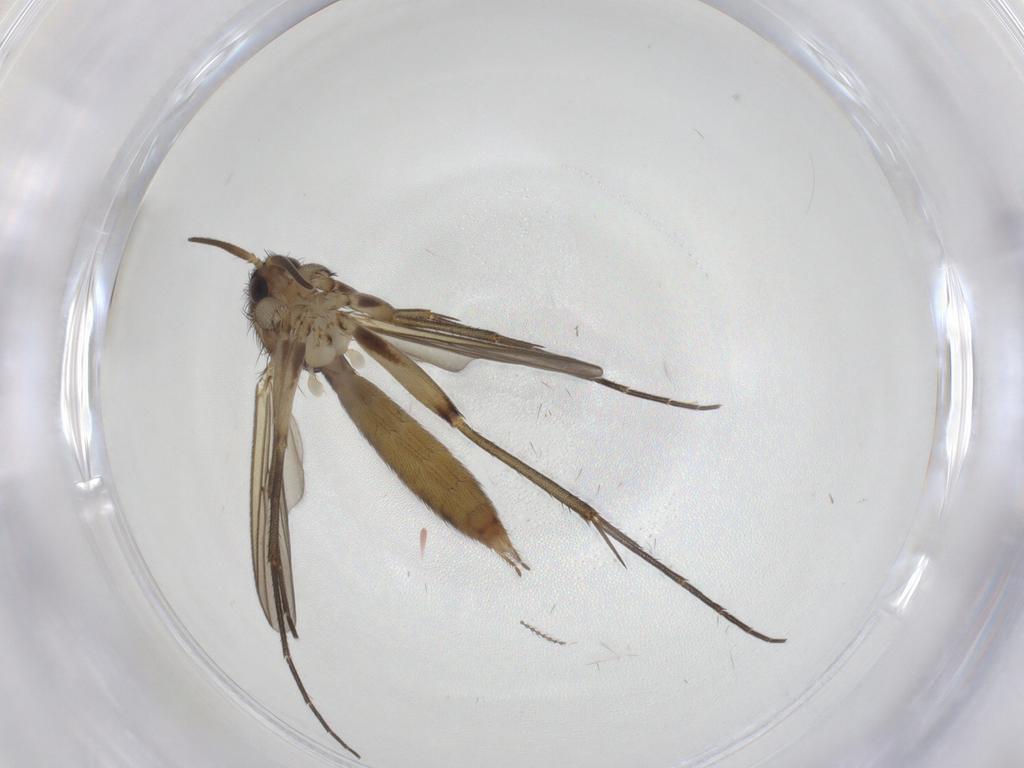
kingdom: Animalia
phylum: Arthropoda
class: Insecta
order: Diptera
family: Mycetophilidae
